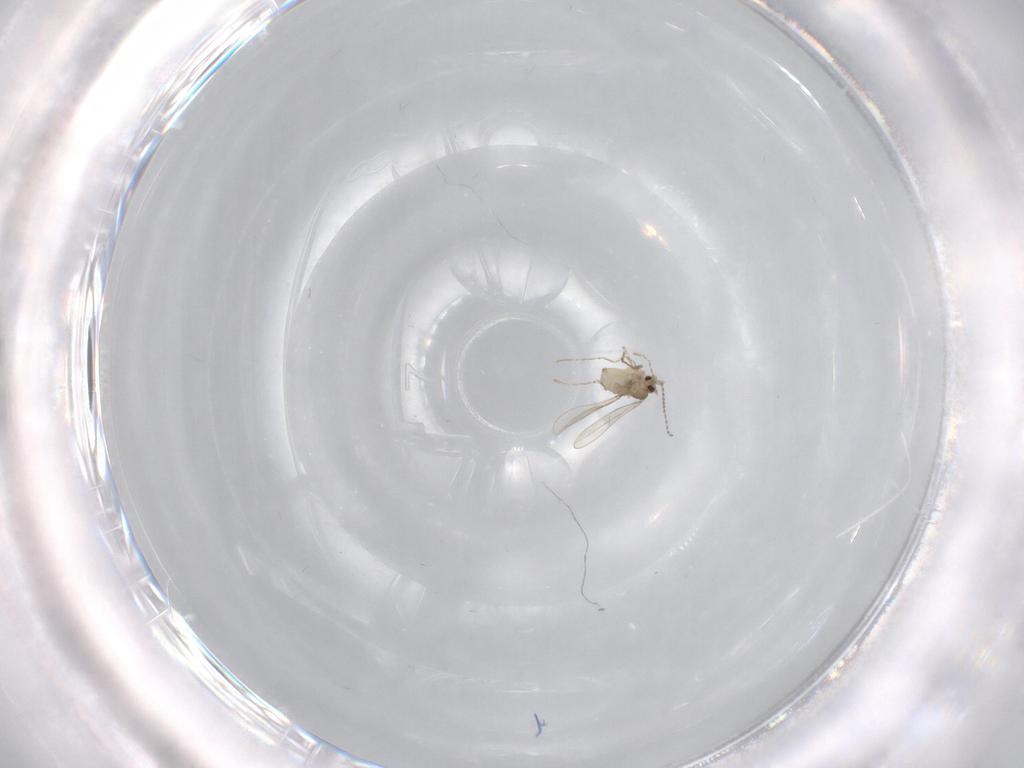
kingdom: Animalia
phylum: Arthropoda
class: Insecta
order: Diptera
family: Cecidomyiidae
